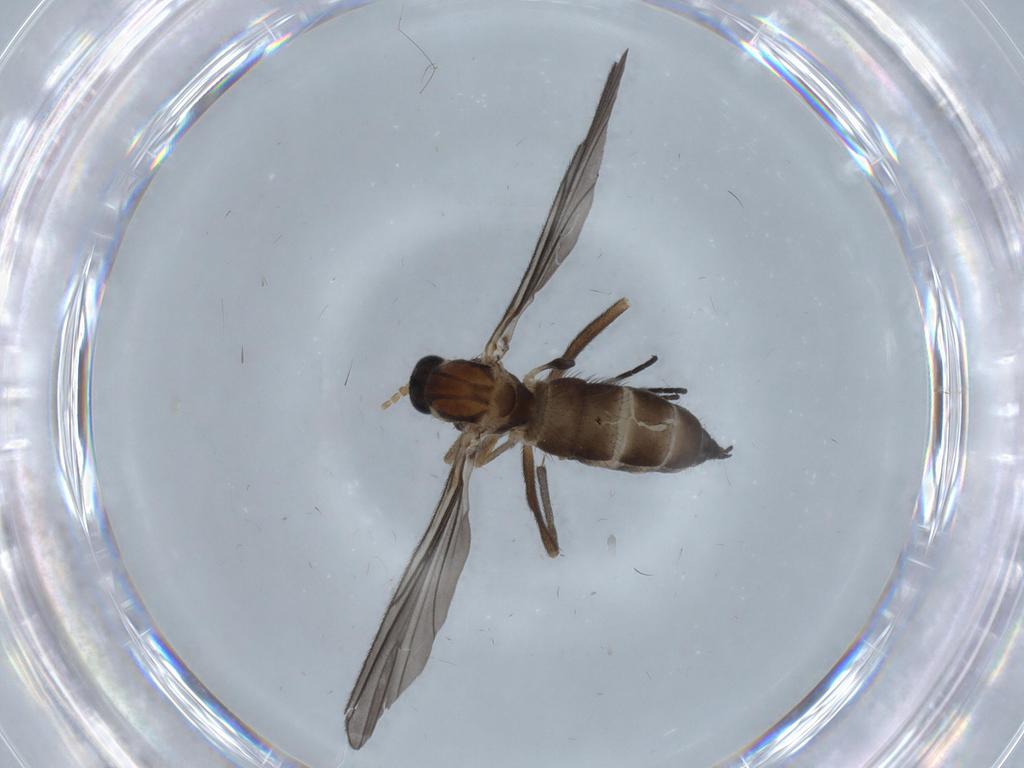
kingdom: Animalia
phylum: Arthropoda
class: Insecta
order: Diptera
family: Sciaridae
